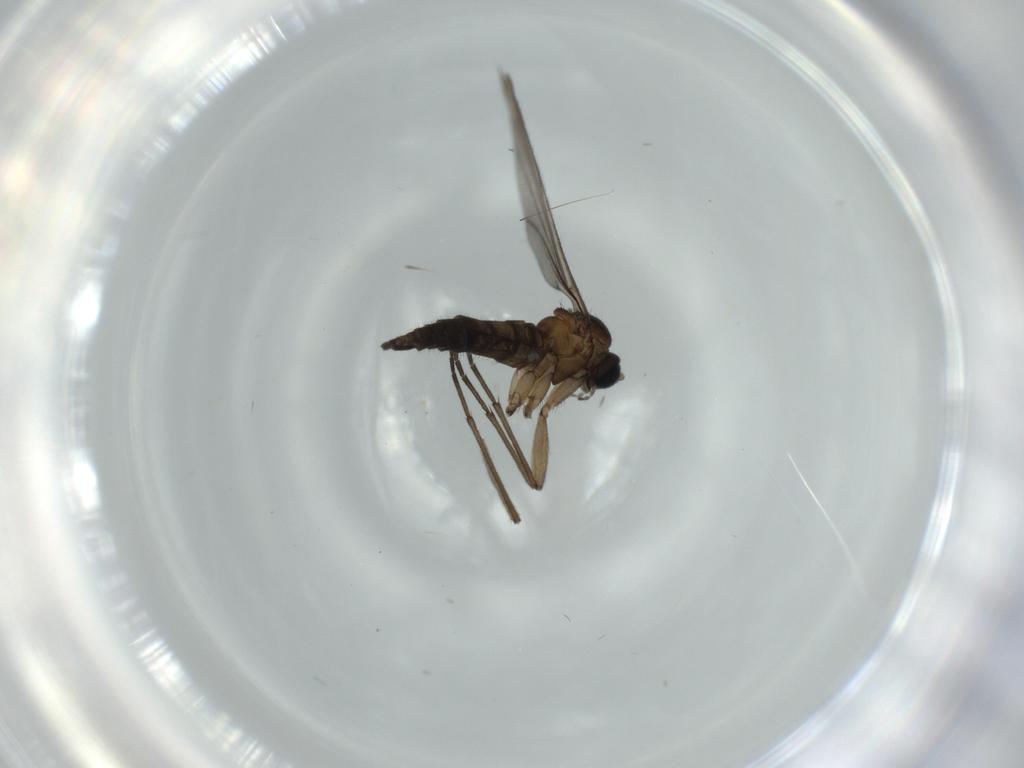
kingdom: Animalia
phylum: Arthropoda
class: Insecta
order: Diptera
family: Sciaridae
